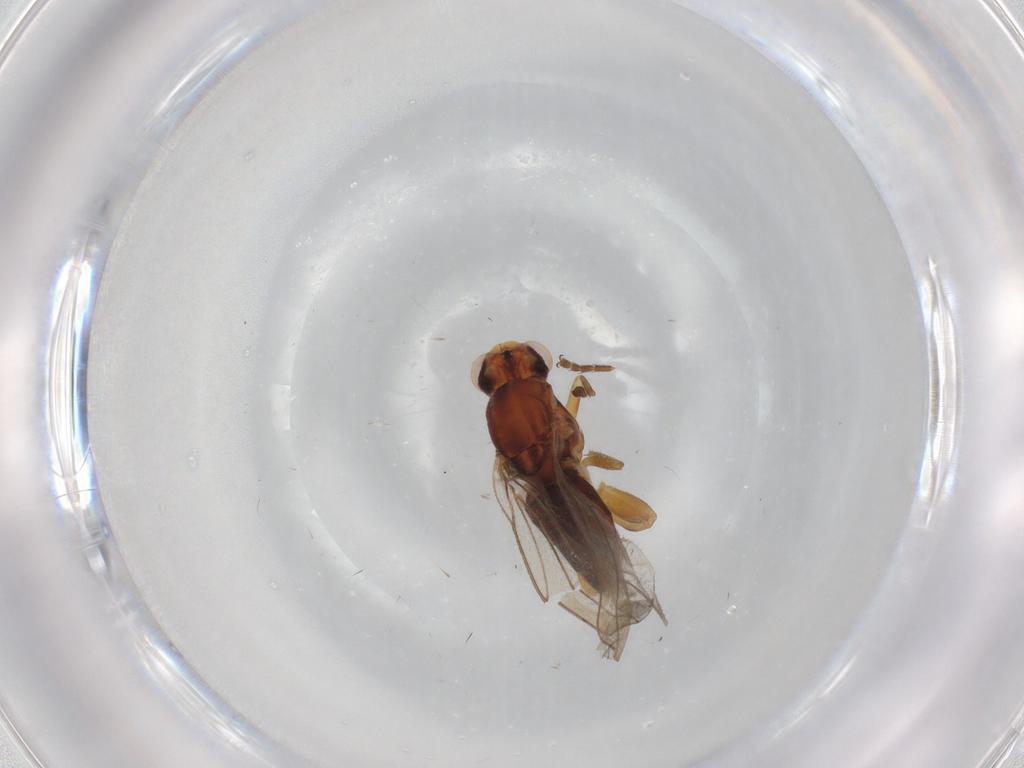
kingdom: Animalia
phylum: Arthropoda
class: Insecta
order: Diptera
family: Chloropidae
